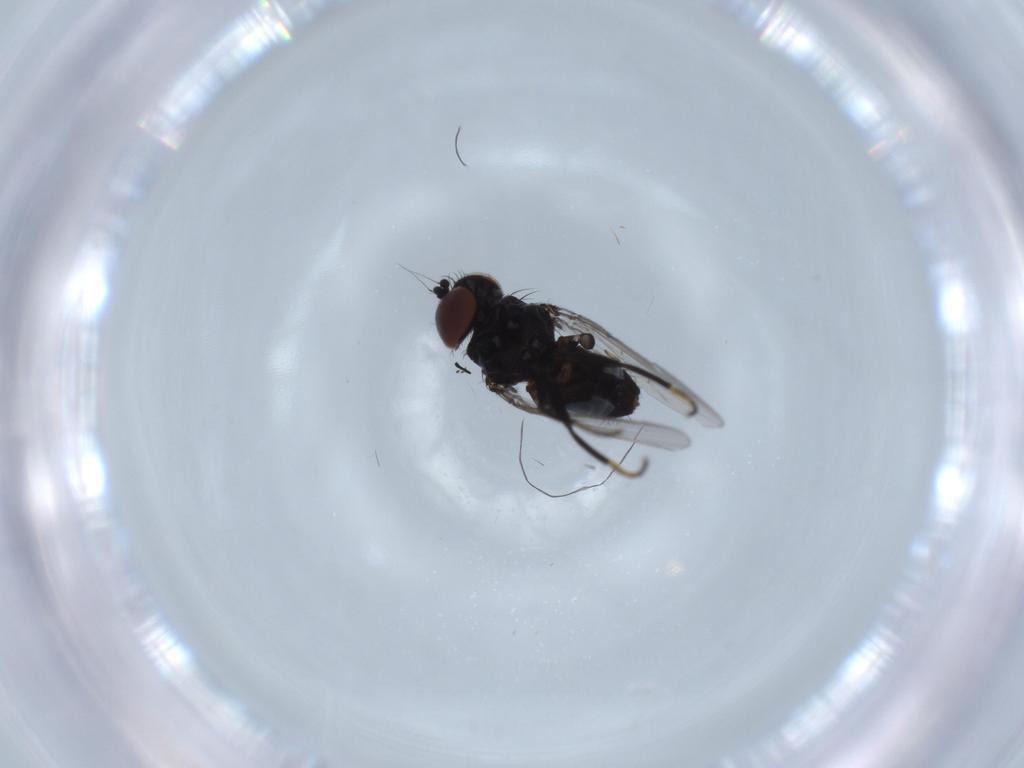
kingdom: Animalia
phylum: Arthropoda
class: Insecta
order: Diptera
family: Milichiidae
